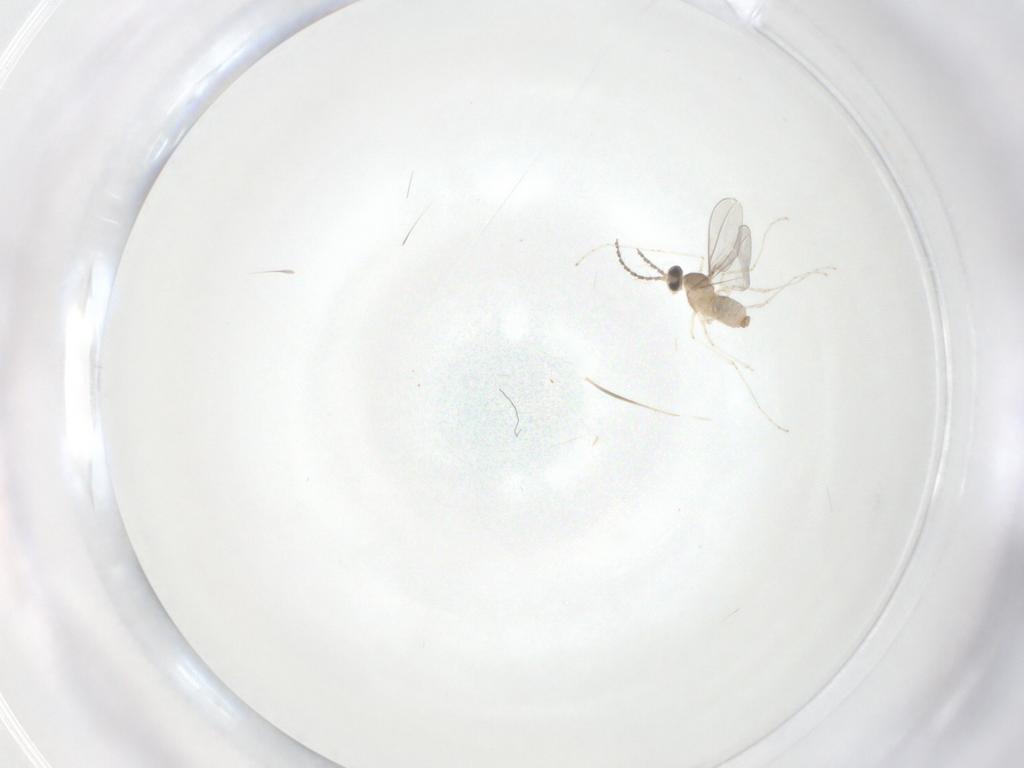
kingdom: Animalia
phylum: Arthropoda
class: Insecta
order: Diptera
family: Cecidomyiidae
